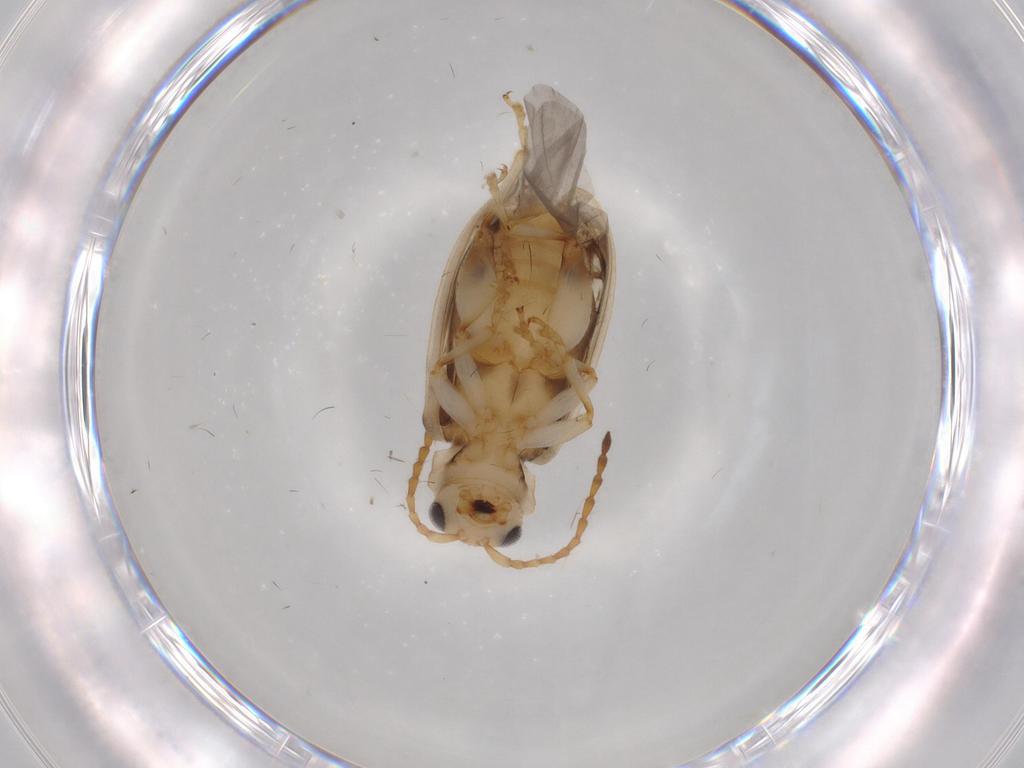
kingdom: Animalia
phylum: Arthropoda
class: Insecta
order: Coleoptera
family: Chrysomelidae
